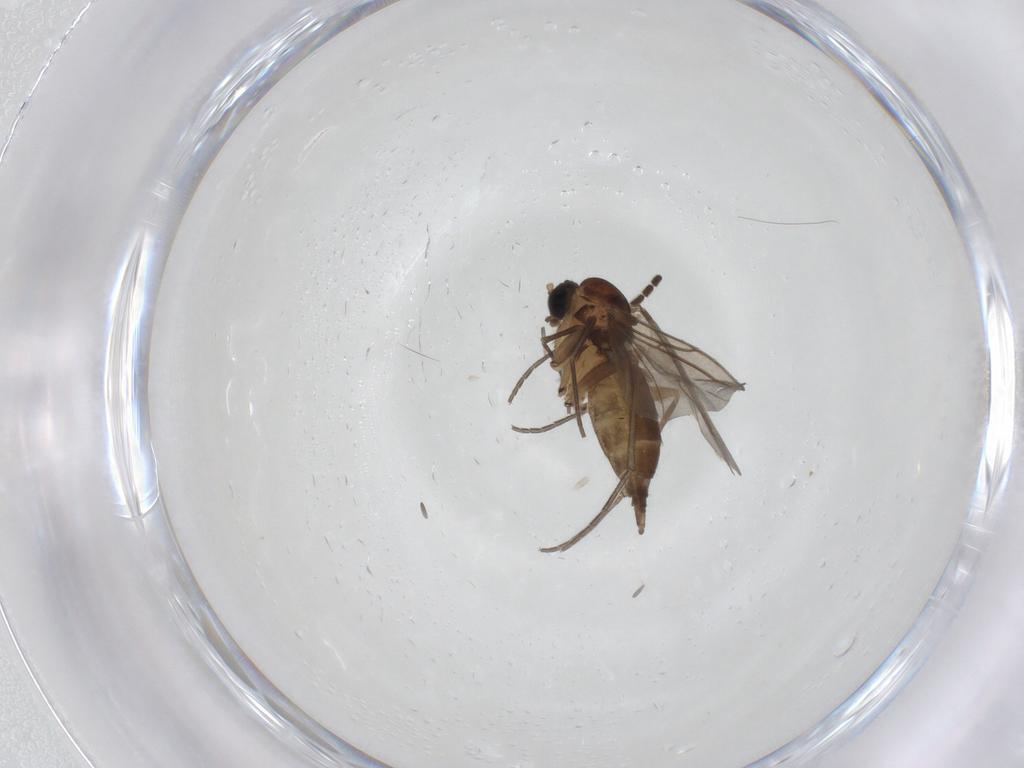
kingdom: Animalia
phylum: Arthropoda
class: Insecta
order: Diptera
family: Sciaridae
